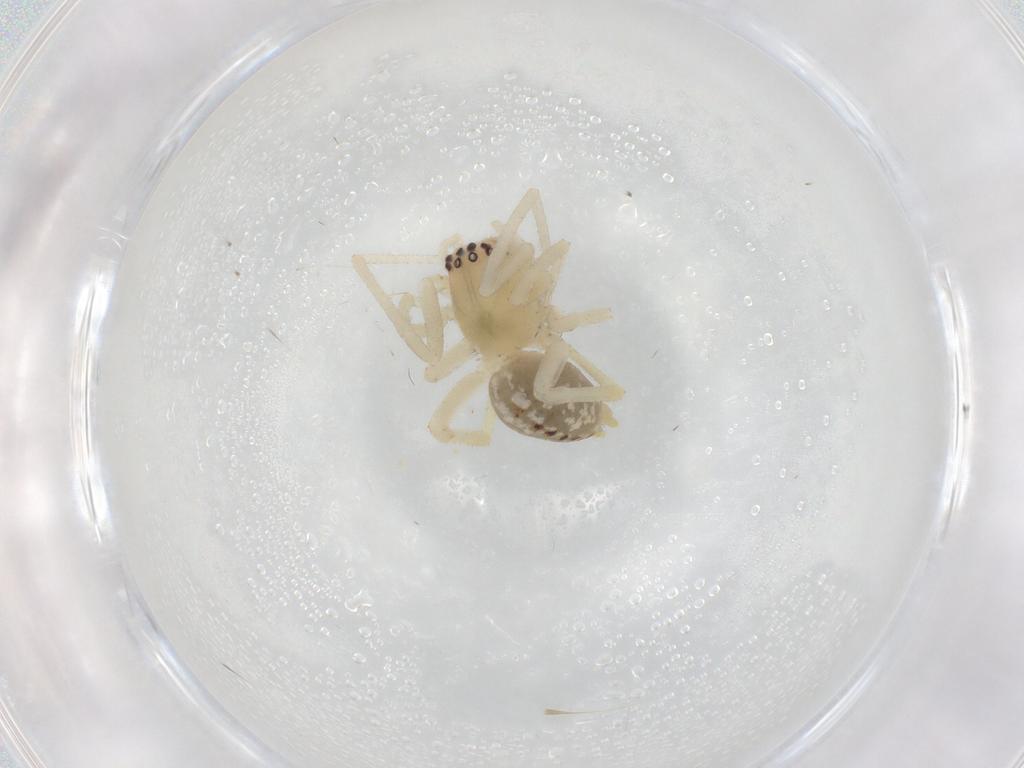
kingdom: Animalia
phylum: Arthropoda
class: Arachnida
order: Araneae
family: Cheiracanthiidae
